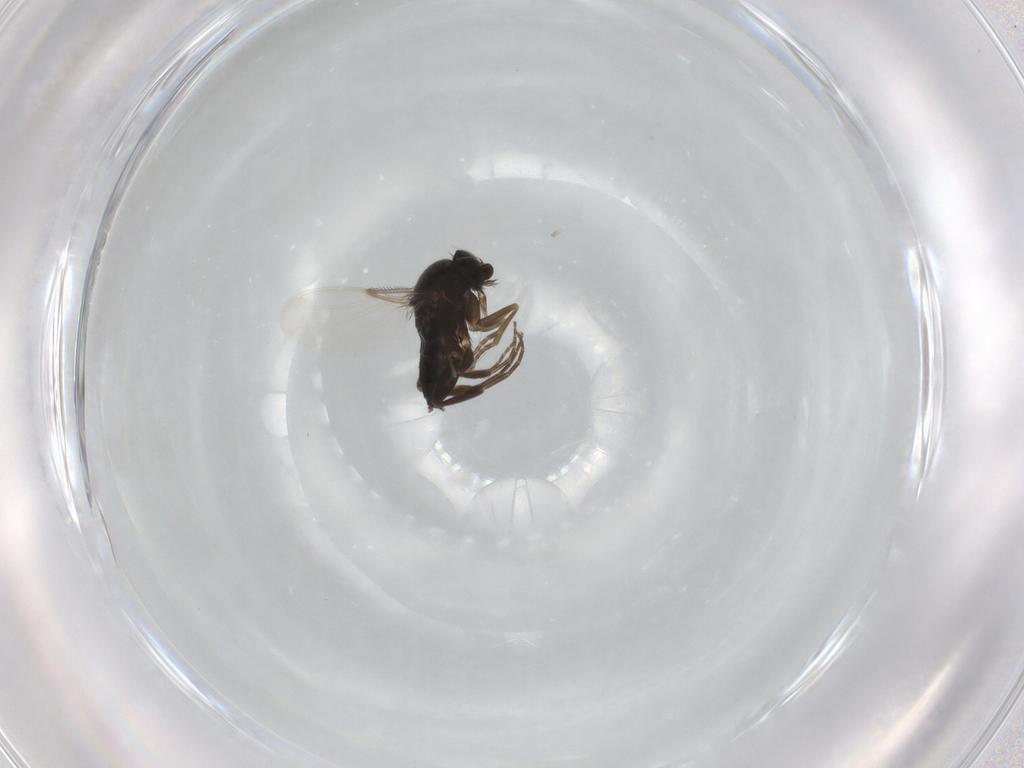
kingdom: Animalia
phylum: Arthropoda
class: Insecta
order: Diptera
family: Phoridae
